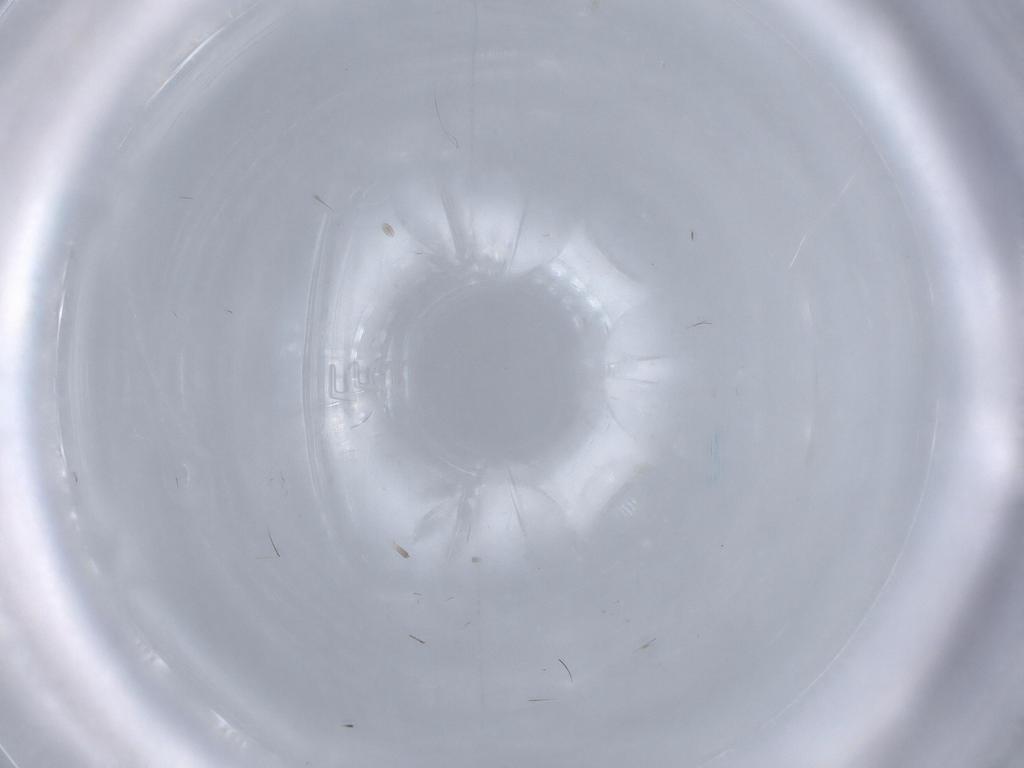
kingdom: Animalia
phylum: Arthropoda
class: Insecta
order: Diptera
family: Chironomidae
